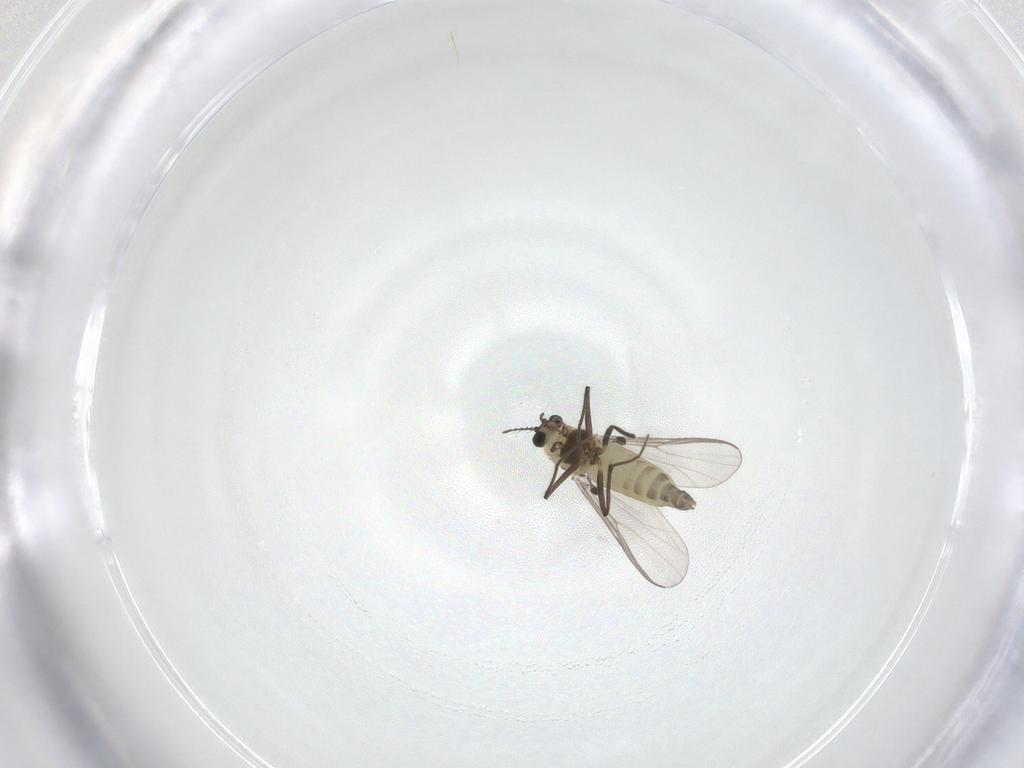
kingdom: Animalia
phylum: Arthropoda
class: Insecta
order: Diptera
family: Chironomidae
